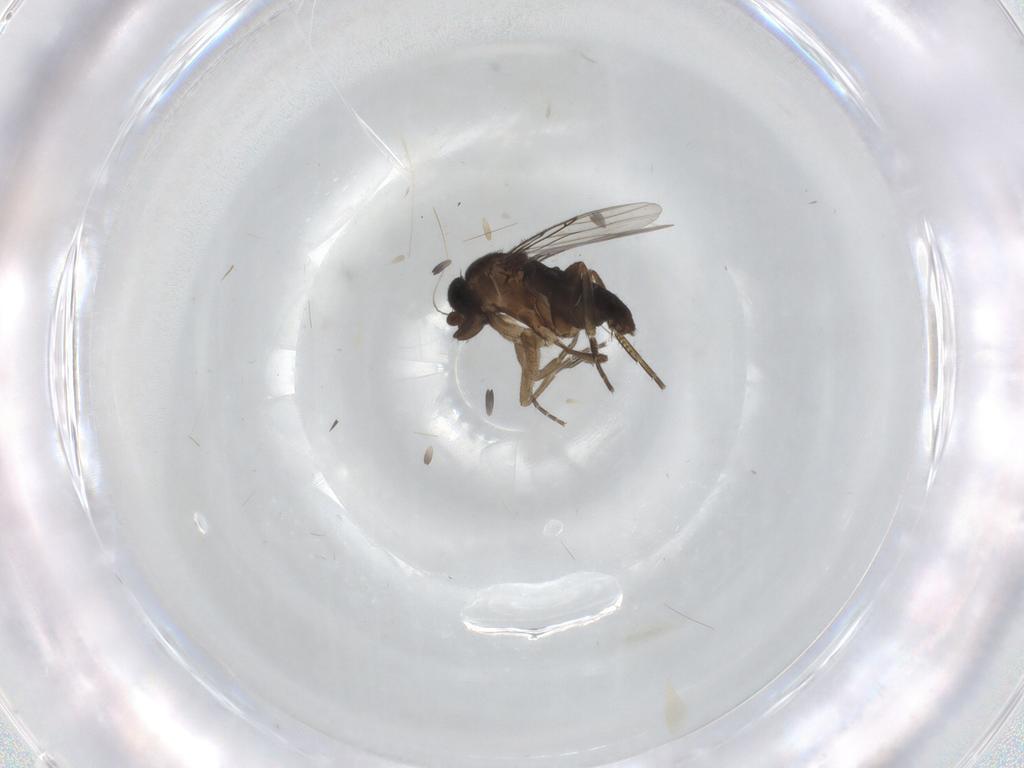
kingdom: Animalia
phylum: Arthropoda
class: Insecta
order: Diptera
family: Phoridae
